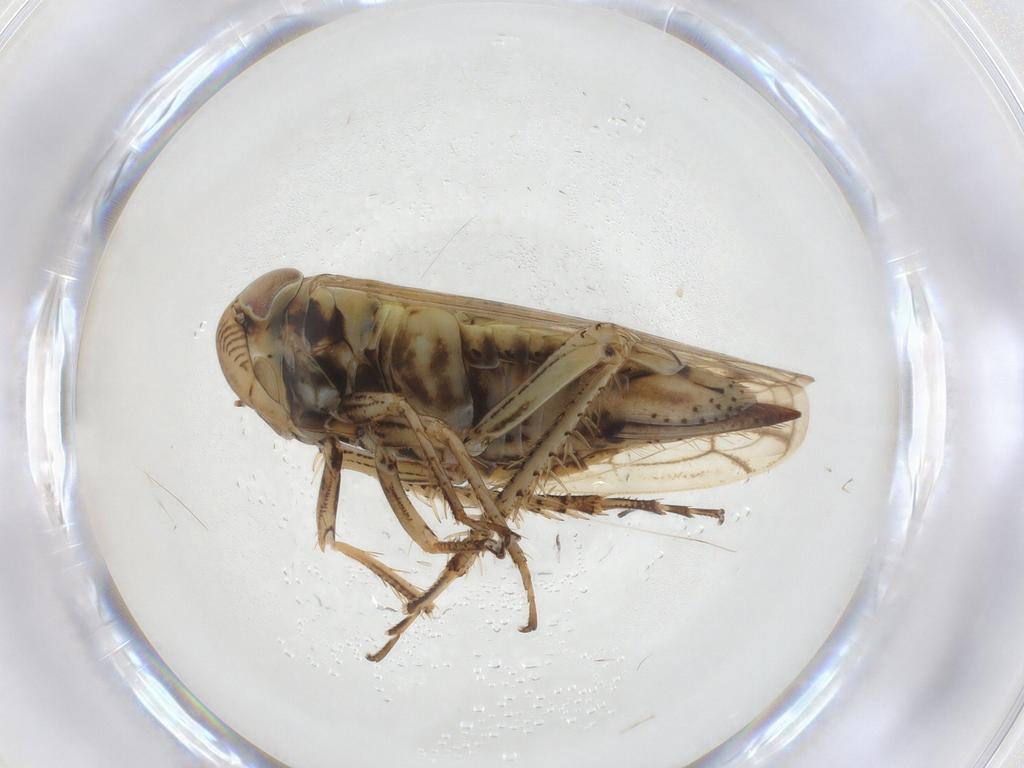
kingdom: Animalia
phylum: Arthropoda
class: Insecta
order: Hemiptera
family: Cicadellidae
